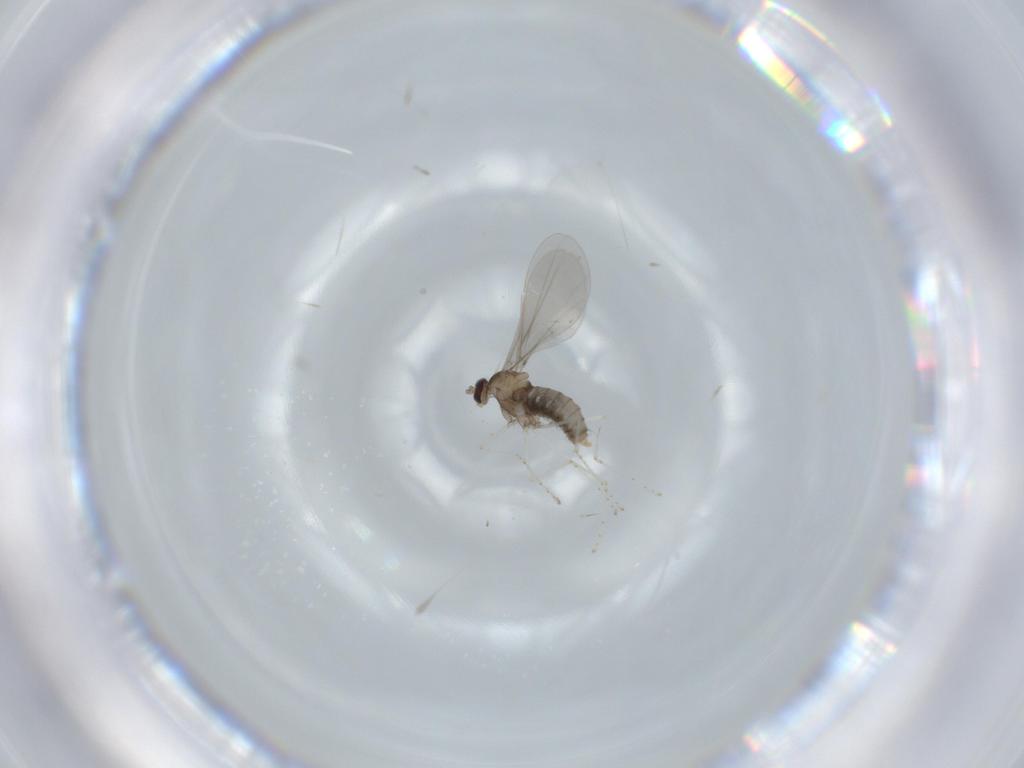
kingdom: Animalia
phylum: Arthropoda
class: Insecta
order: Diptera
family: Cecidomyiidae
